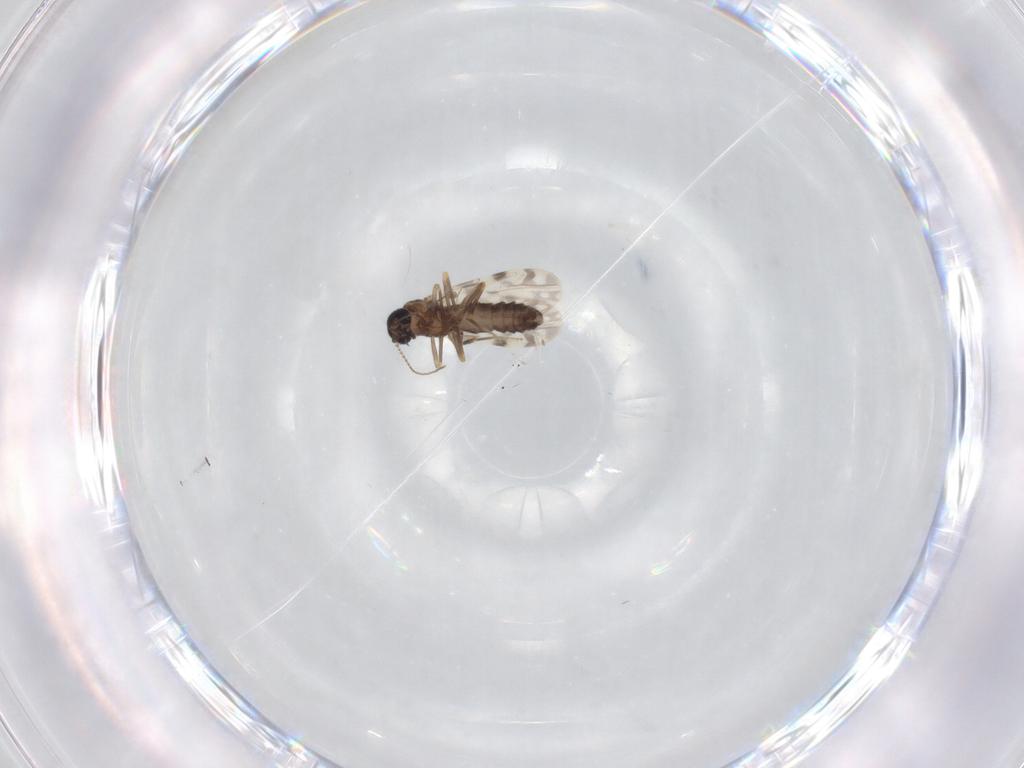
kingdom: Animalia
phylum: Arthropoda
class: Insecta
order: Diptera
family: Ceratopogonidae
